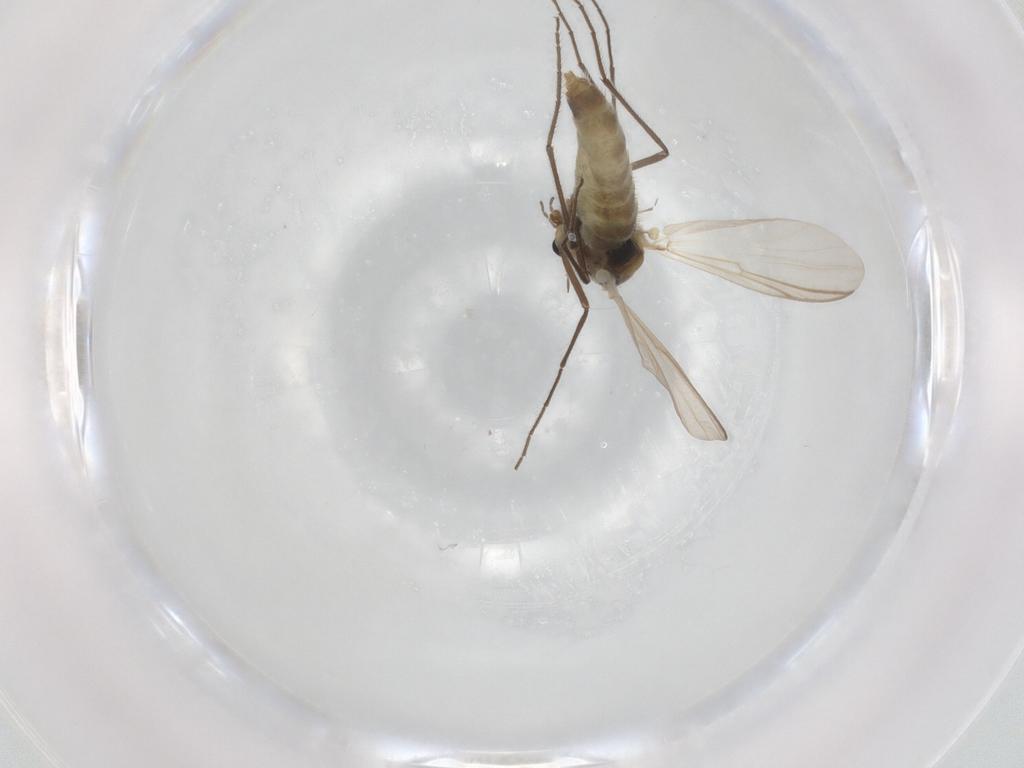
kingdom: Animalia
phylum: Arthropoda
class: Insecta
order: Diptera
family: Chironomidae
